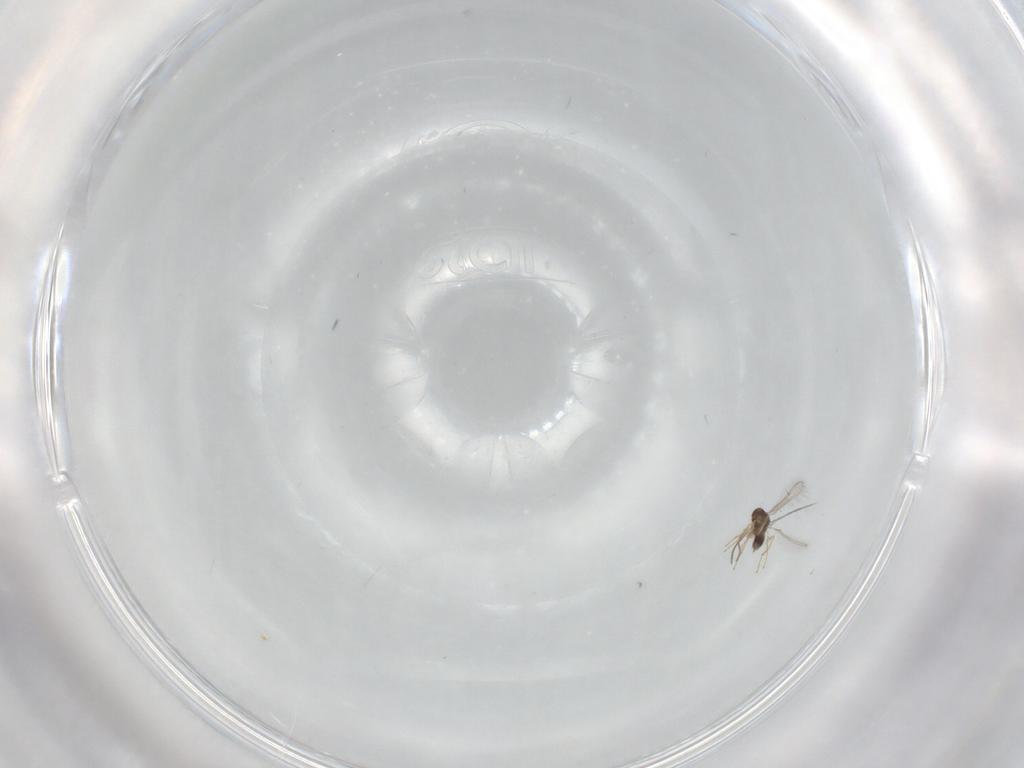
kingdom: Animalia
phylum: Arthropoda
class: Insecta
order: Hymenoptera
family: Mymaridae
